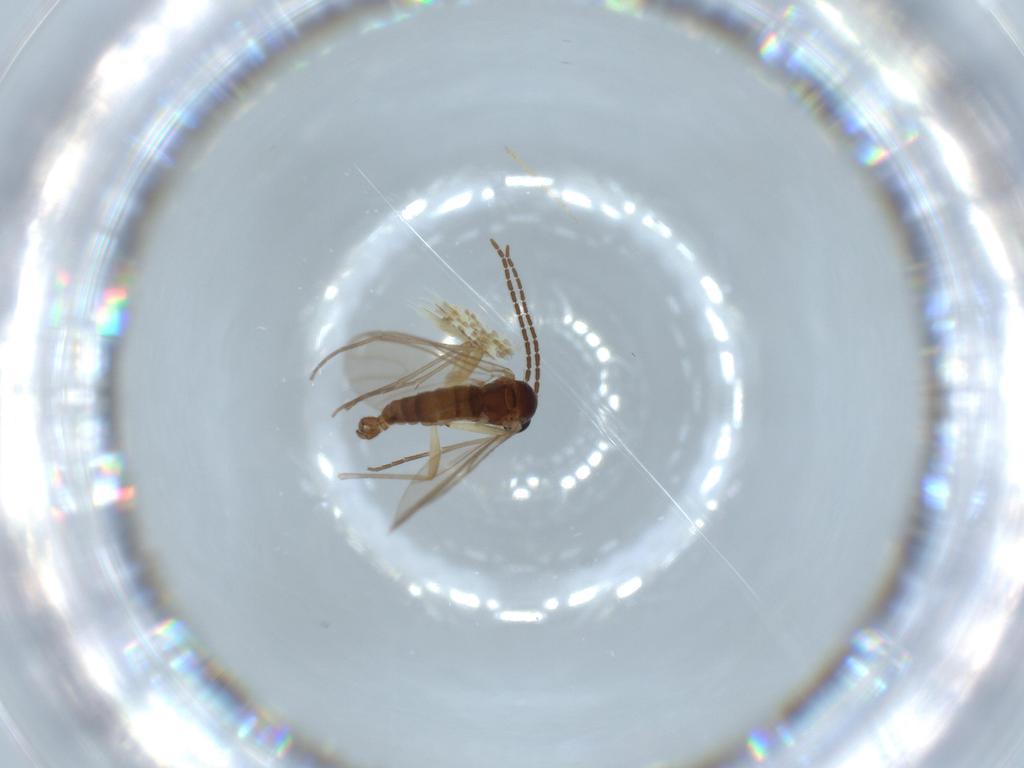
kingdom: Animalia
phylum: Arthropoda
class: Insecta
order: Diptera
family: Sciaridae
